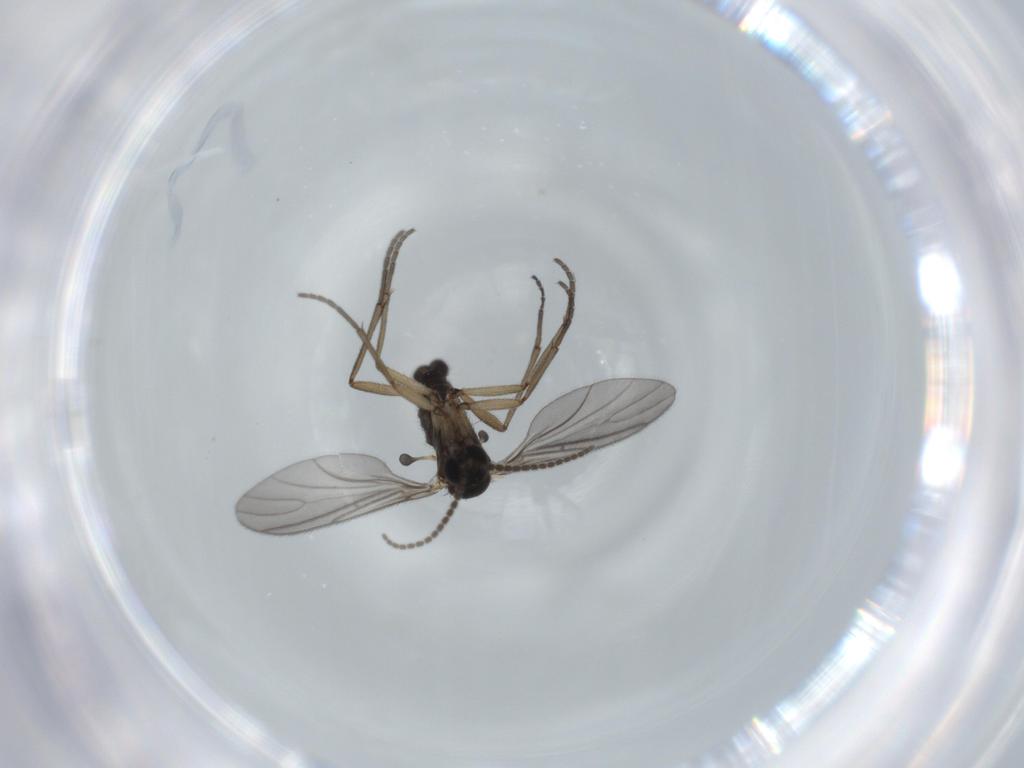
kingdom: Animalia
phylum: Arthropoda
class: Insecta
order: Diptera
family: Sciaridae
